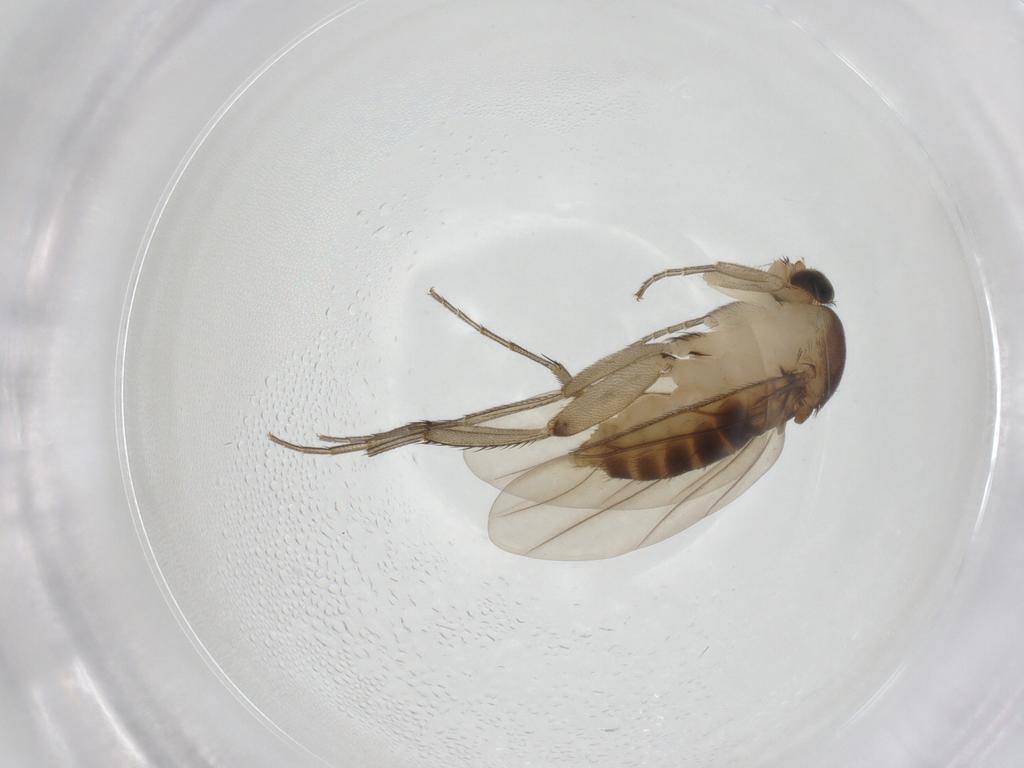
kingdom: Animalia
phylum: Arthropoda
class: Insecta
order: Diptera
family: Phoridae
